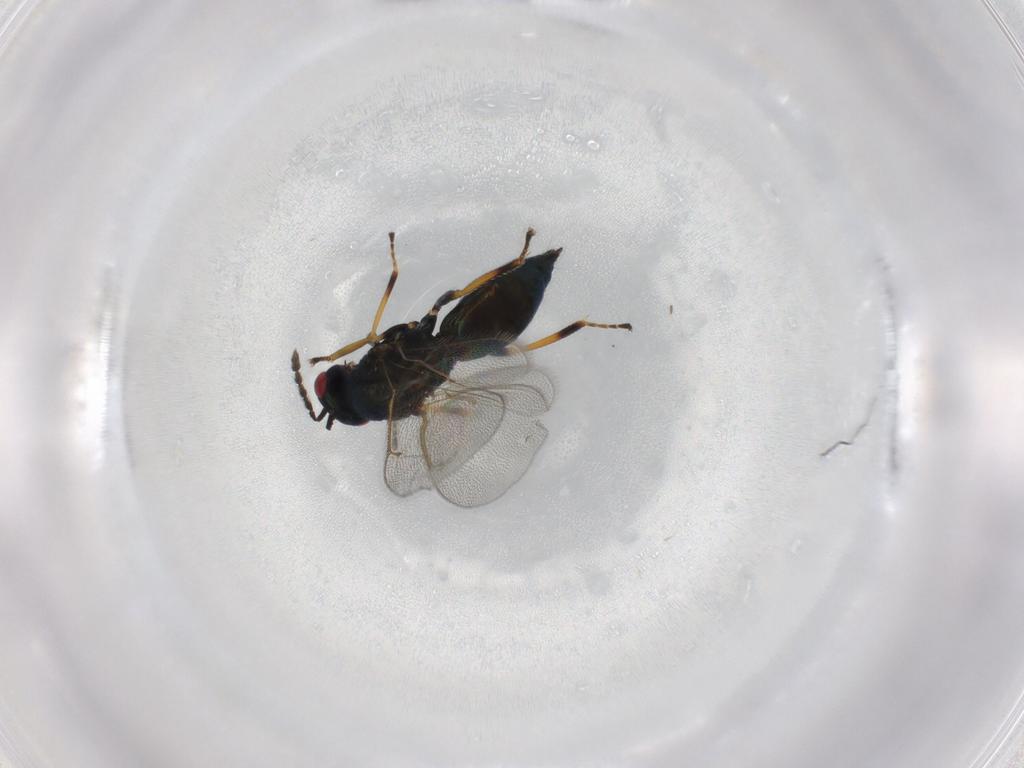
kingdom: Animalia
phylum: Arthropoda
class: Insecta
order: Hymenoptera
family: Eulophidae
